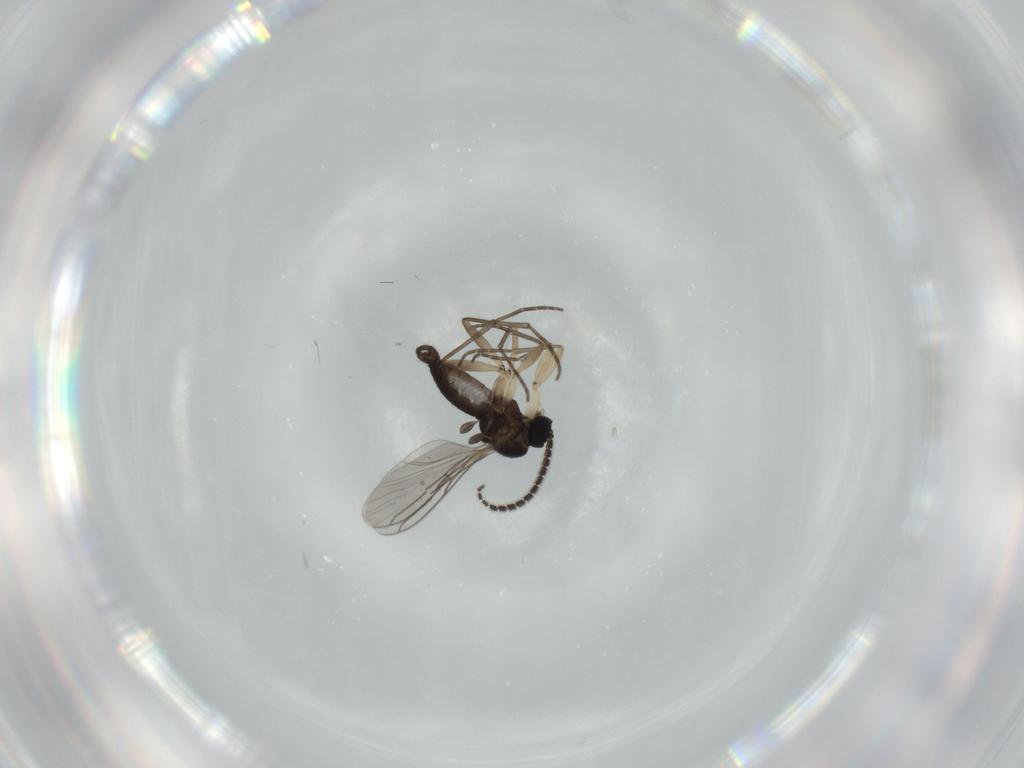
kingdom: Animalia
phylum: Arthropoda
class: Insecta
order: Diptera
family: Sciaridae
